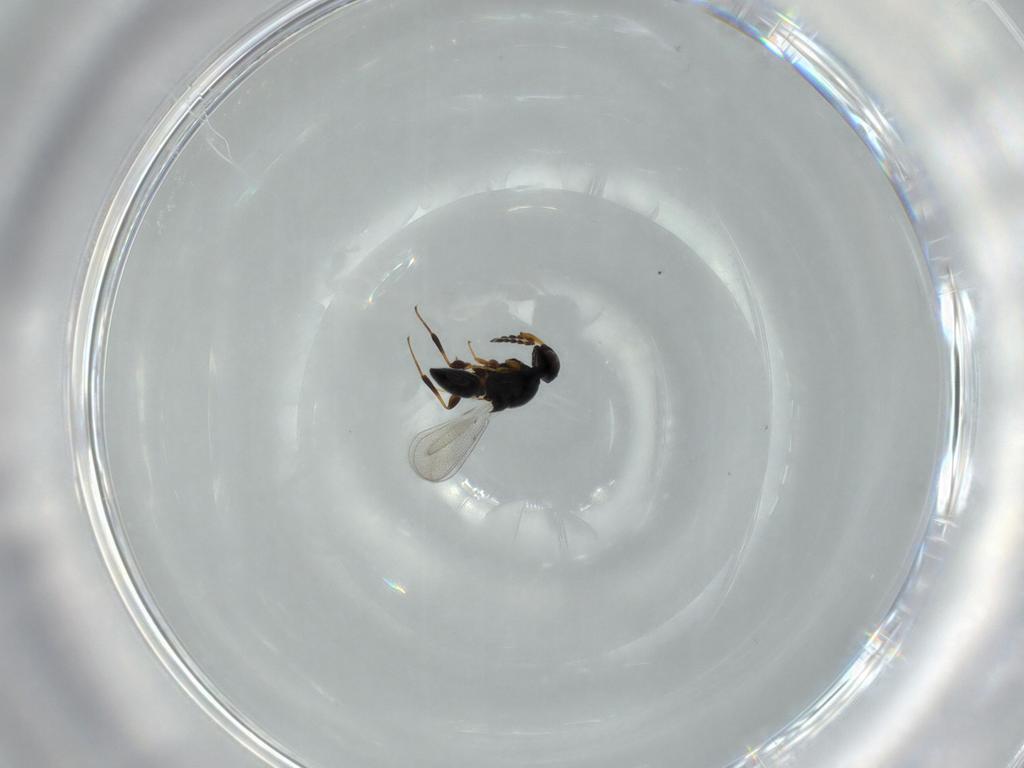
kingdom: Animalia
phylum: Arthropoda
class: Insecta
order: Hymenoptera
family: Platygastridae
